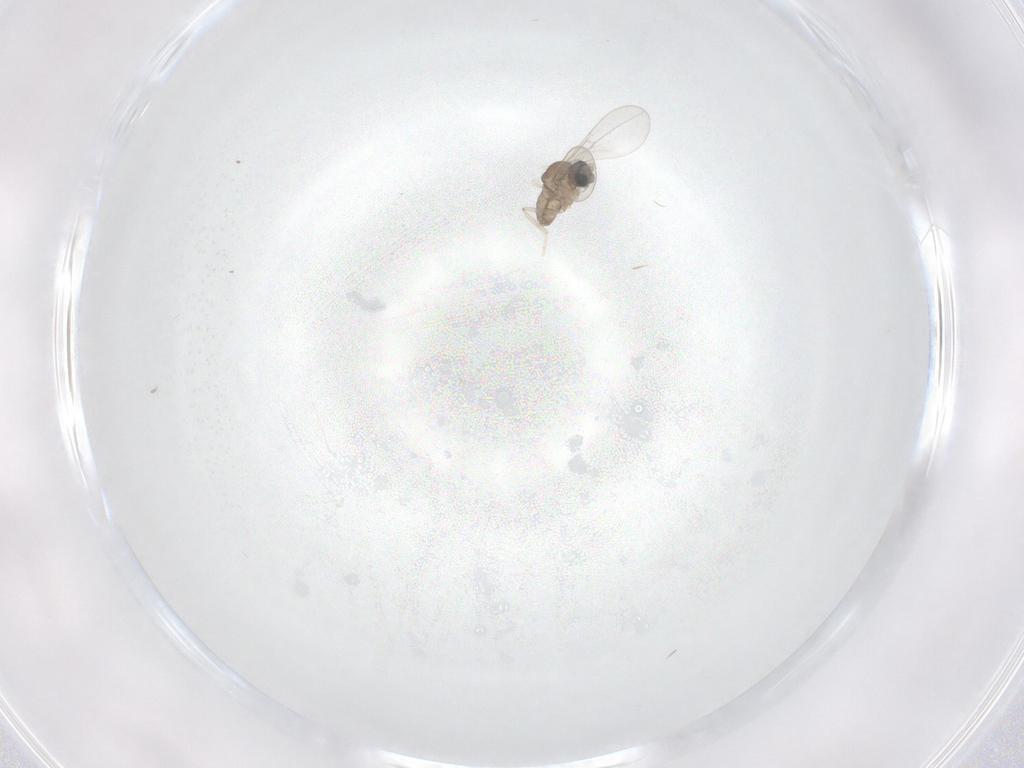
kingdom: Animalia
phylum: Arthropoda
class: Insecta
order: Diptera
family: Cecidomyiidae
